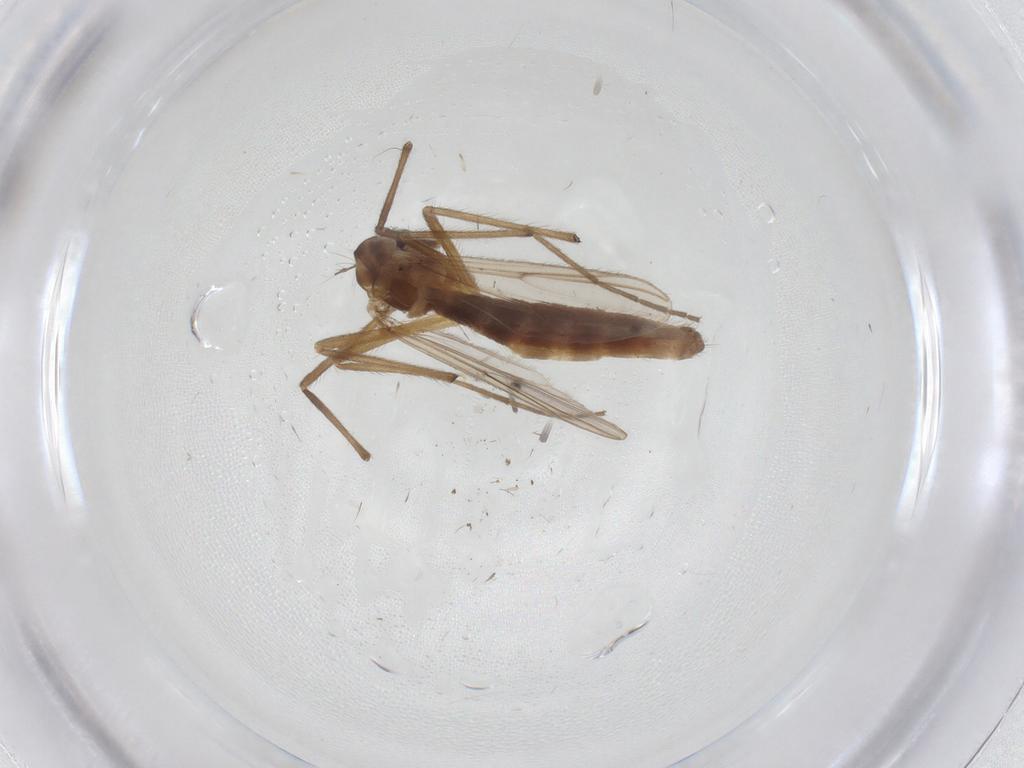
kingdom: Animalia
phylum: Arthropoda
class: Insecta
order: Diptera
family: Chironomidae
